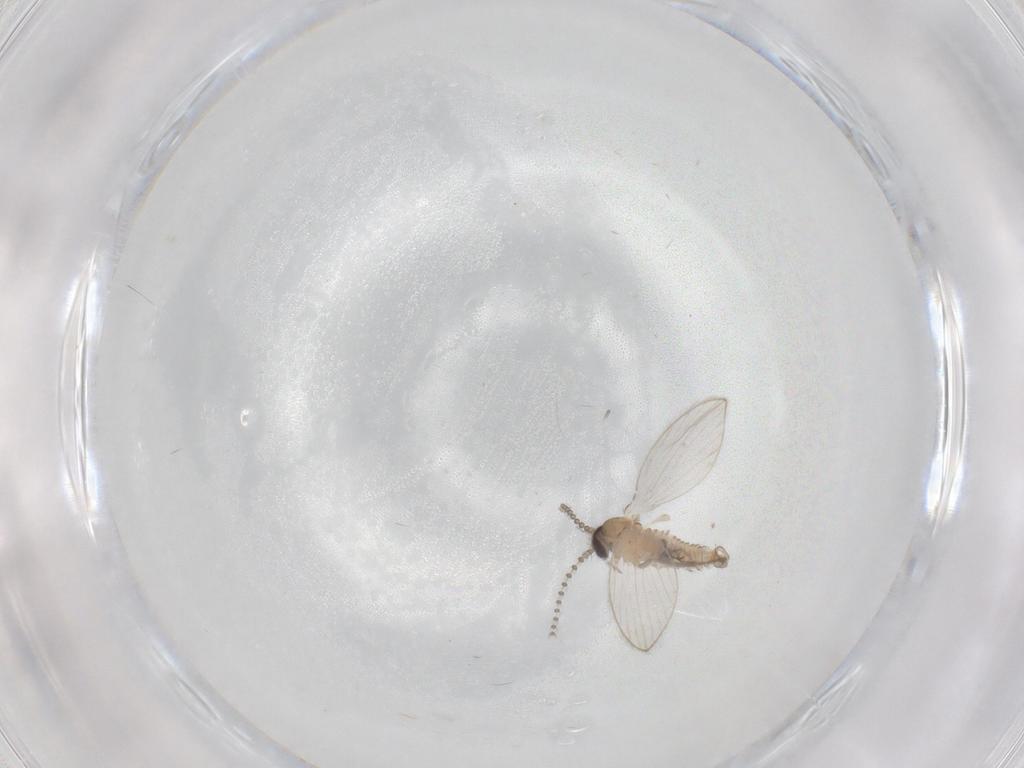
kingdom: Animalia
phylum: Arthropoda
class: Insecta
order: Diptera
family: Psychodidae
